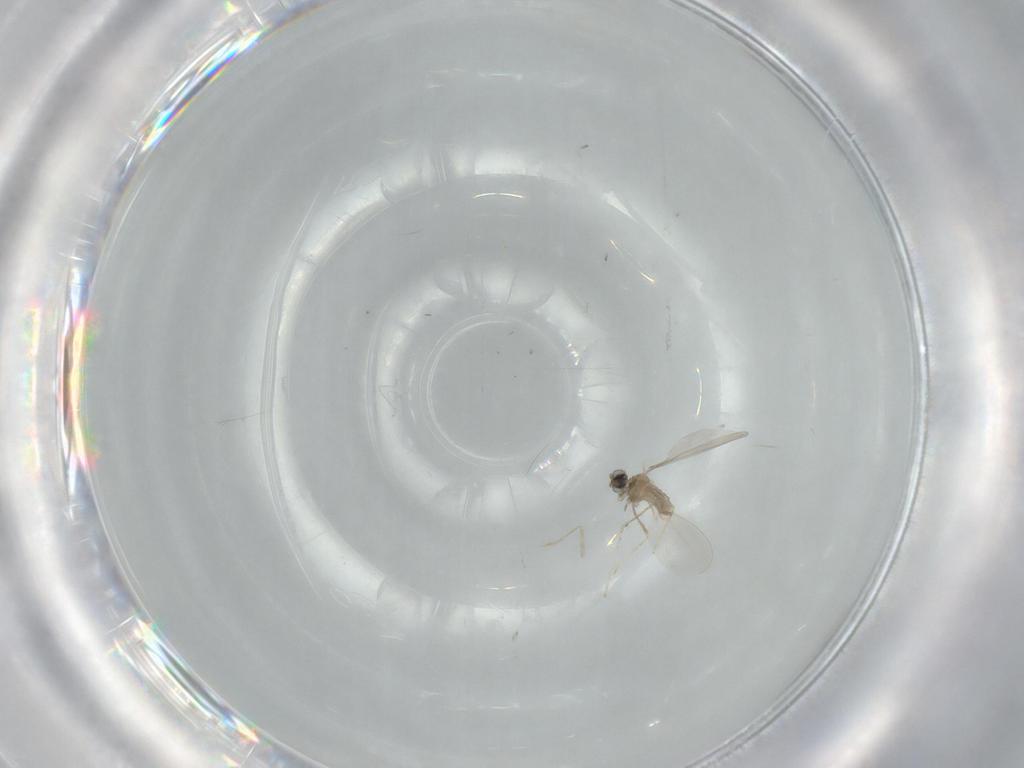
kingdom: Animalia
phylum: Arthropoda
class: Insecta
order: Diptera
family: Cecidomyiidae
